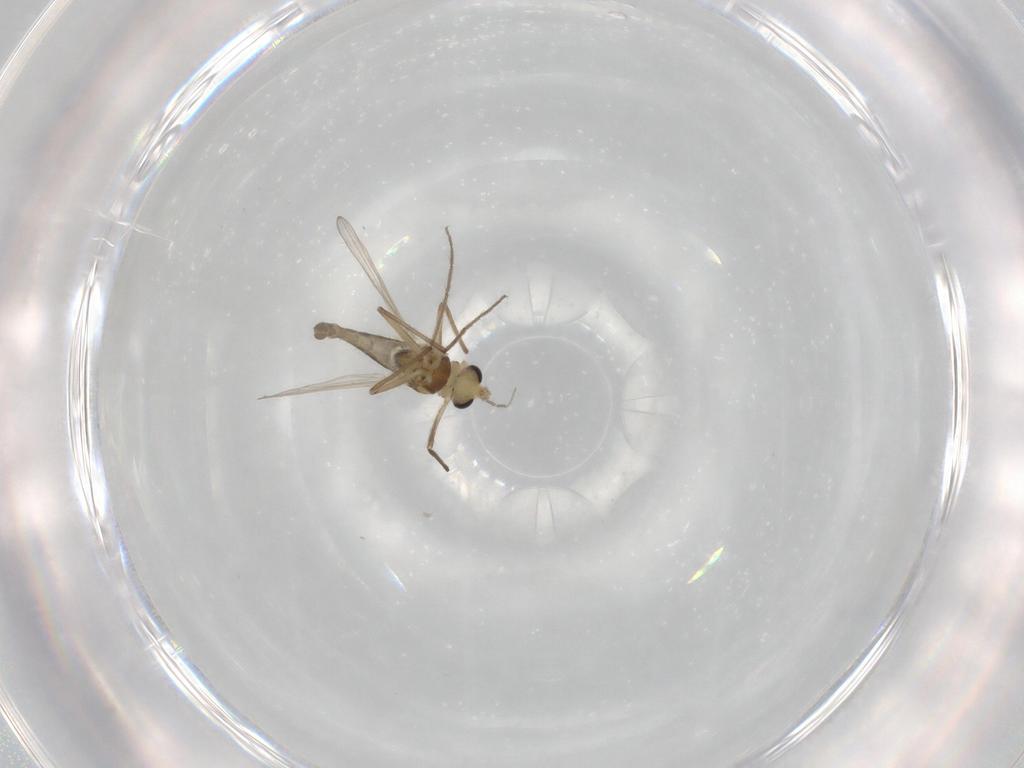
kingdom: Animalia
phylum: Arthropoda
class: Insecta
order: Diptera
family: Chironomidae
